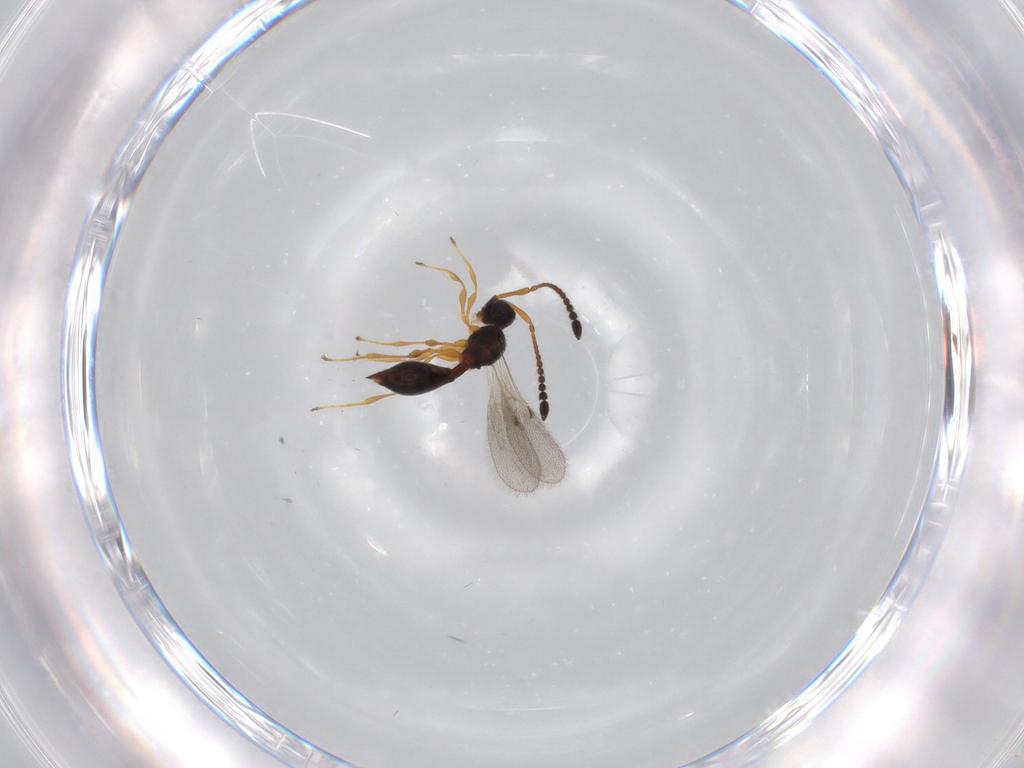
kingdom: Animalia
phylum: Arthropoda
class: Insecta
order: Hymenoptera
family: Diapriidae
